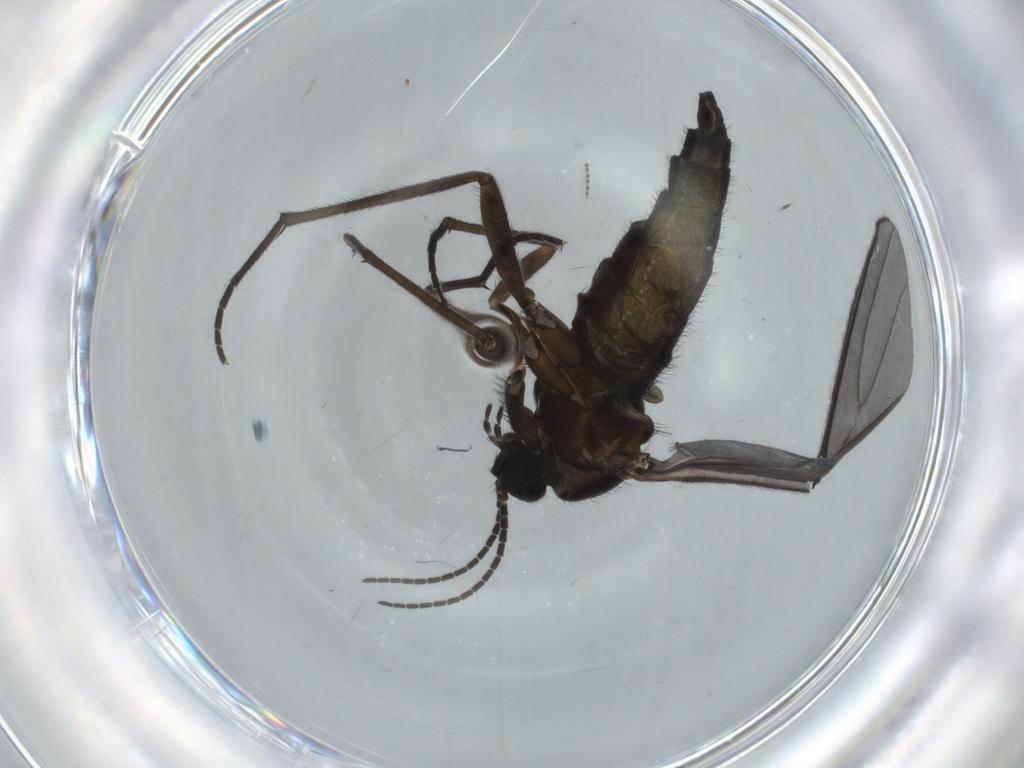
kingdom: Animalia
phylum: Arthropoda
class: Insecta
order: Diptera
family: Sciaridae
